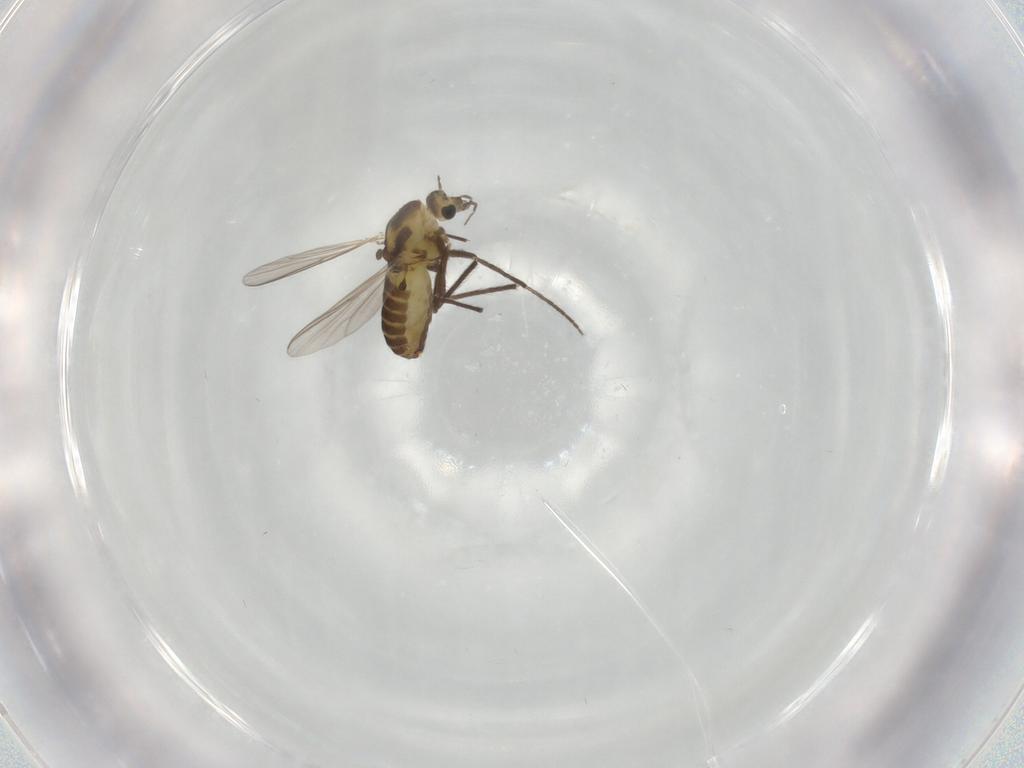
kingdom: Animalia
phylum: Arthropoda
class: Insecta
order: Diptera
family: Chironomidae
